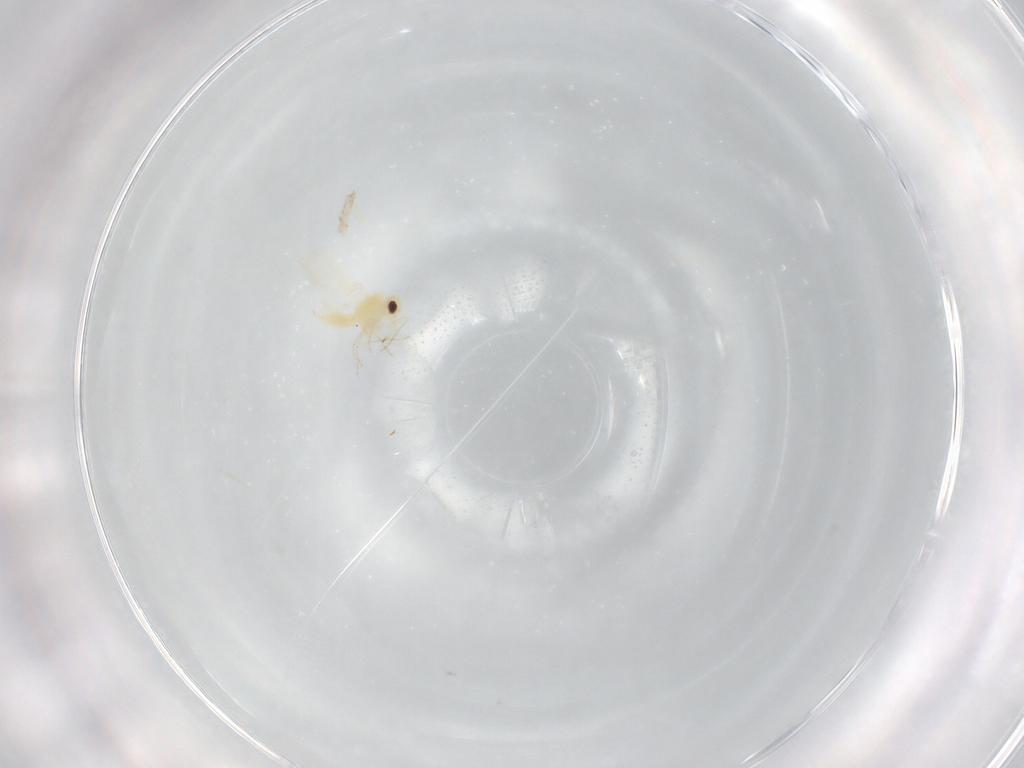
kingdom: Animalia
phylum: Arthropoda
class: Insecta
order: Hemiptera
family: Cicadellidae
